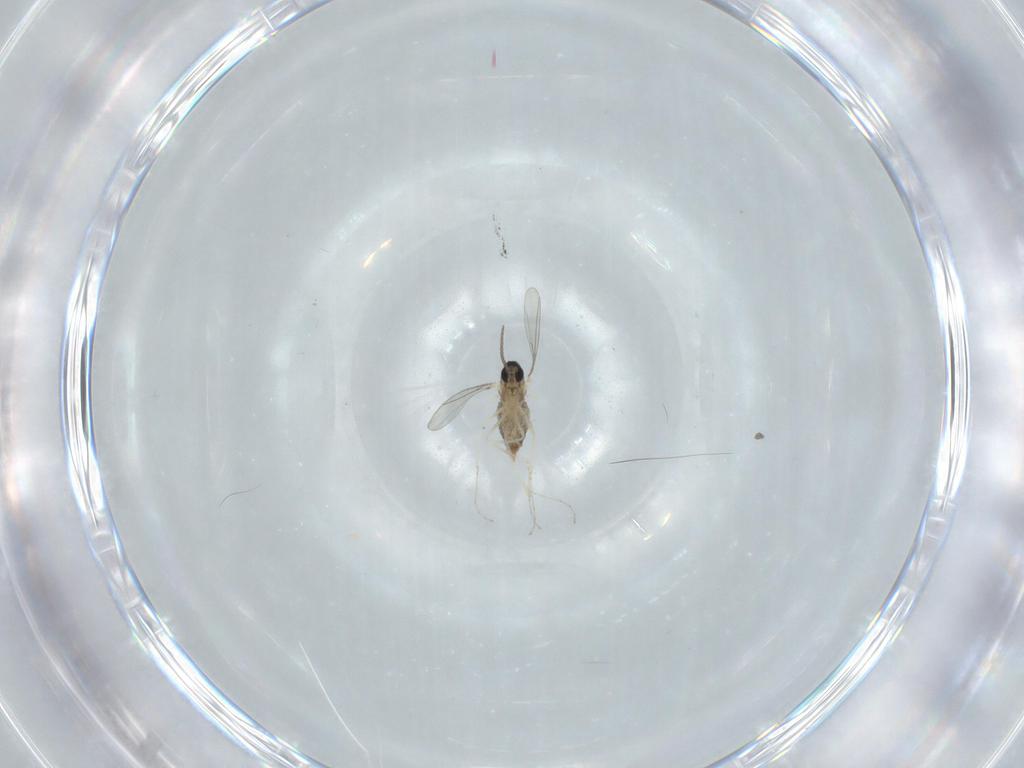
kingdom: Animalia
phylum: Arthropoda
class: Insecta
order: Diptera
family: Cecidomyiidae
